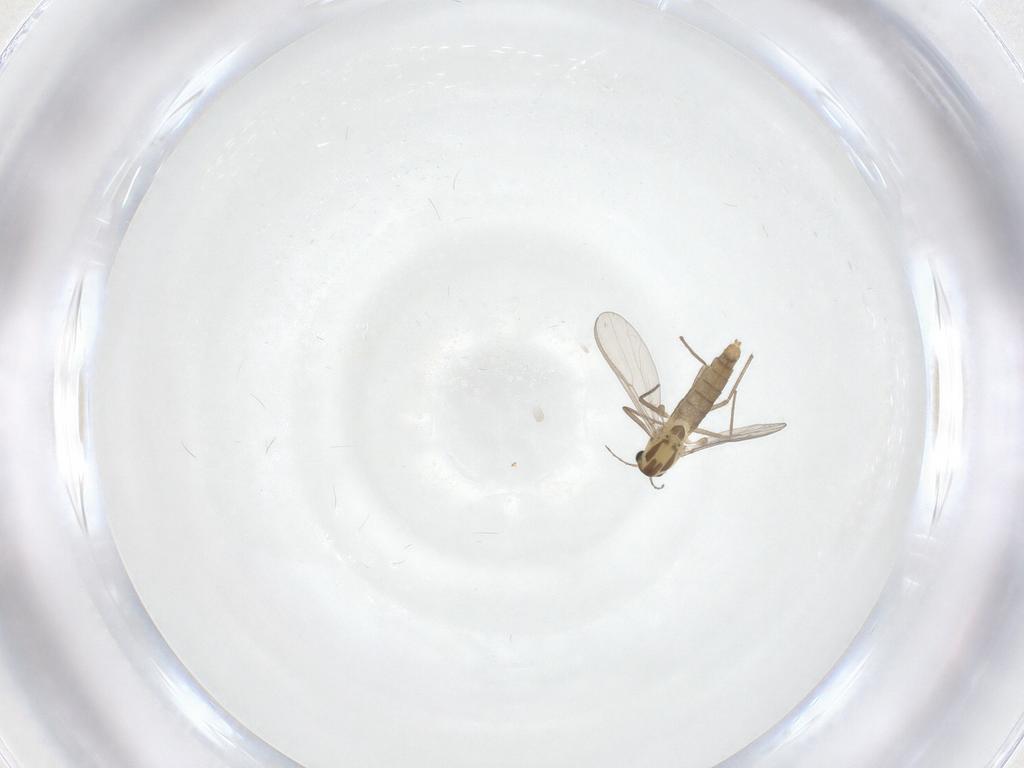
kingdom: Animalia
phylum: Arthropoda
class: Insecta
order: Diptera
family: Chironomidae
